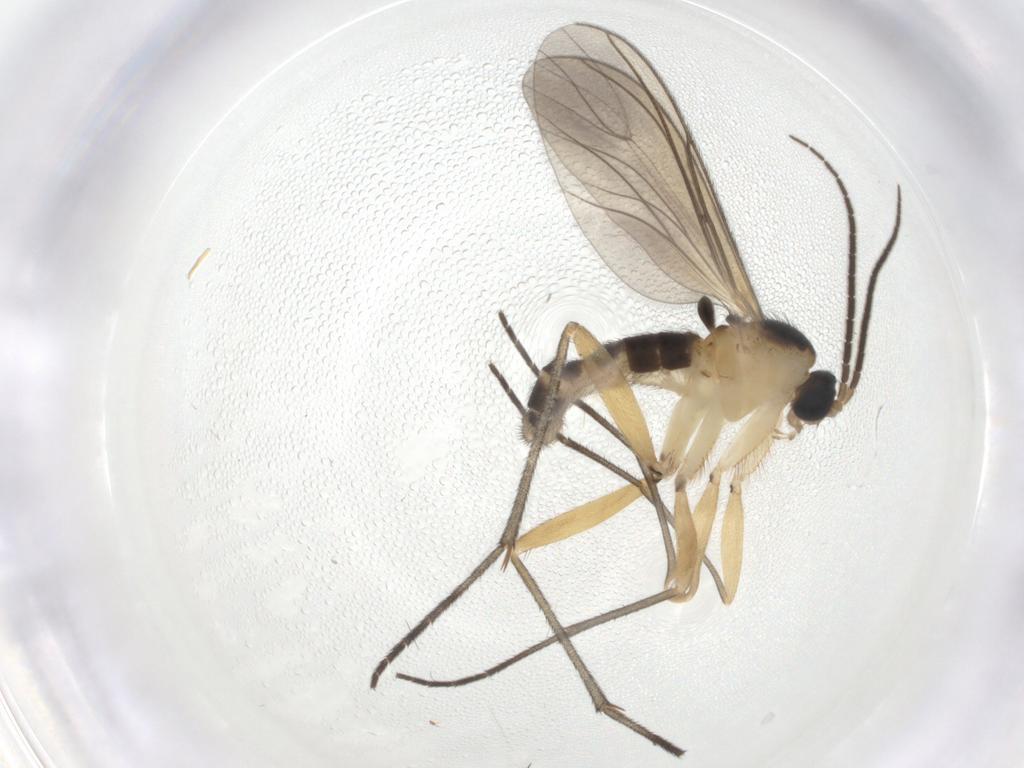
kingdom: Animalia
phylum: Arthropoda
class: Insecta
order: Diptera
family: Sciaridae
